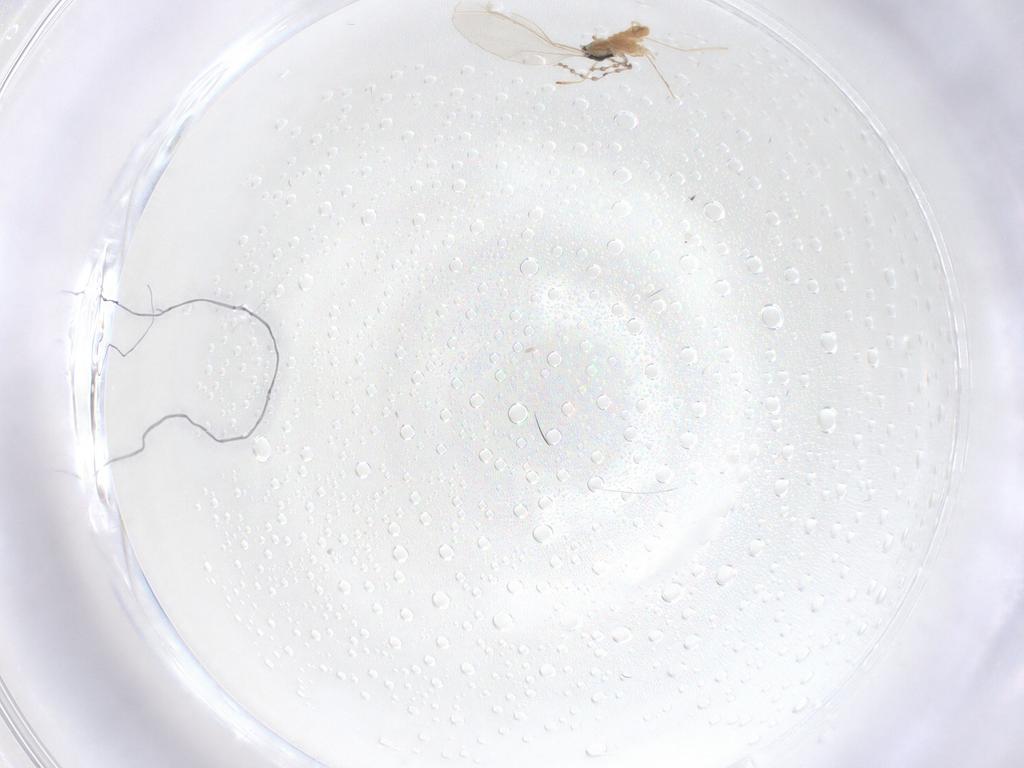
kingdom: Animalia
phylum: Arthropoda
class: Insecta
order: Diptera
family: Cecidomyiidae
